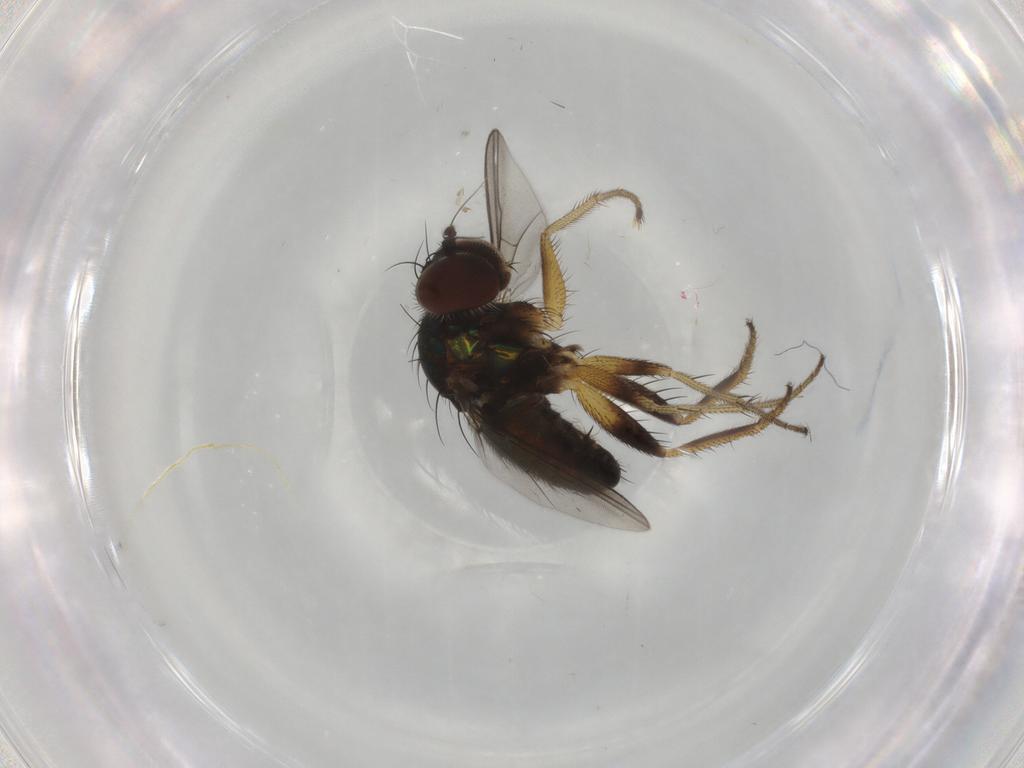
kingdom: Animalia
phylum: Arthropoda
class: Insecta
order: Diptera
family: Dolichopodidae
